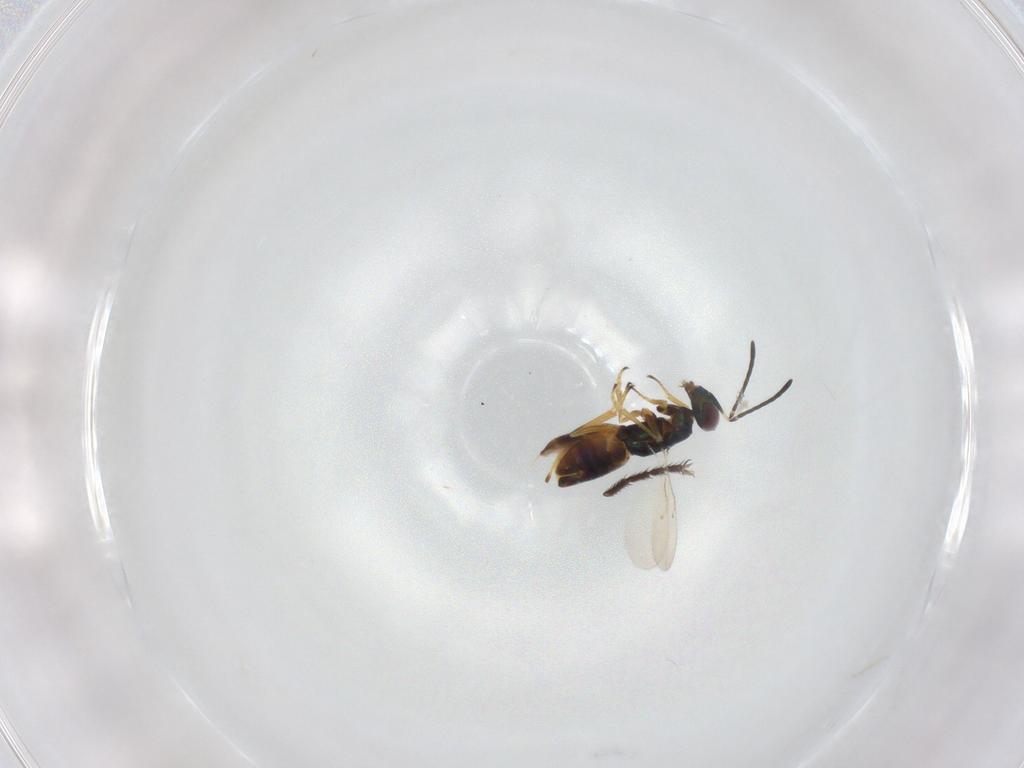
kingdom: Animalia
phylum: Arthropoda
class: Insecta
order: Hymenoptera
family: Encyrtidae
